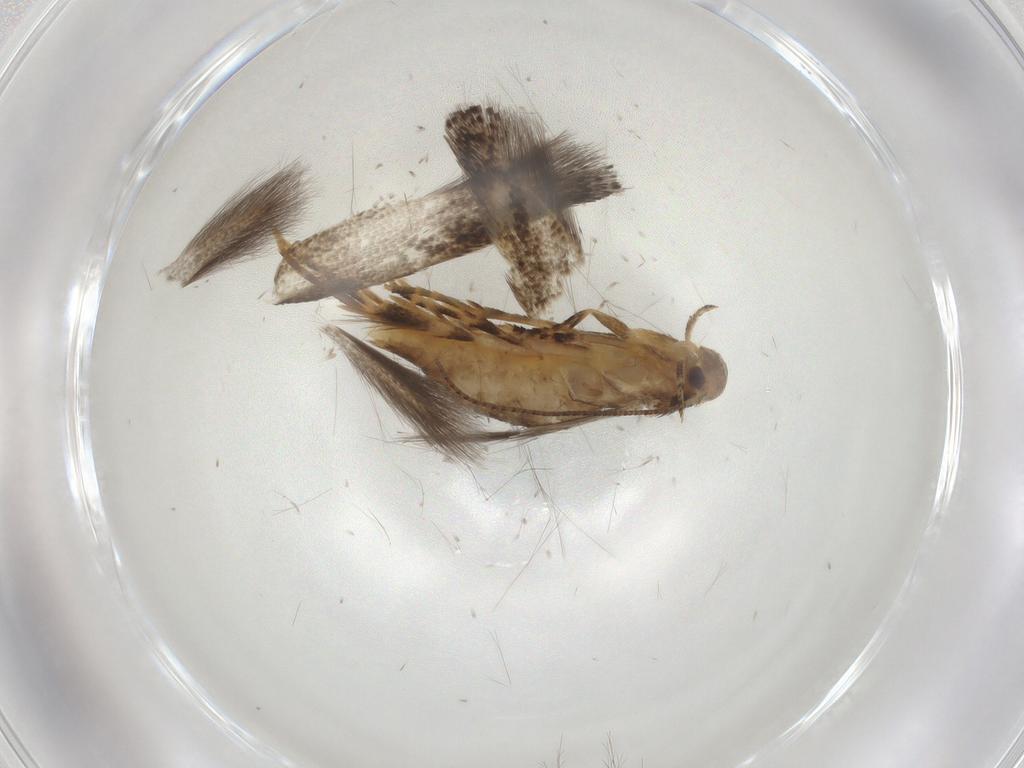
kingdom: Animalia
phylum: Arthropoda
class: Insecta
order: Lepidoptera
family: Elachistidae
